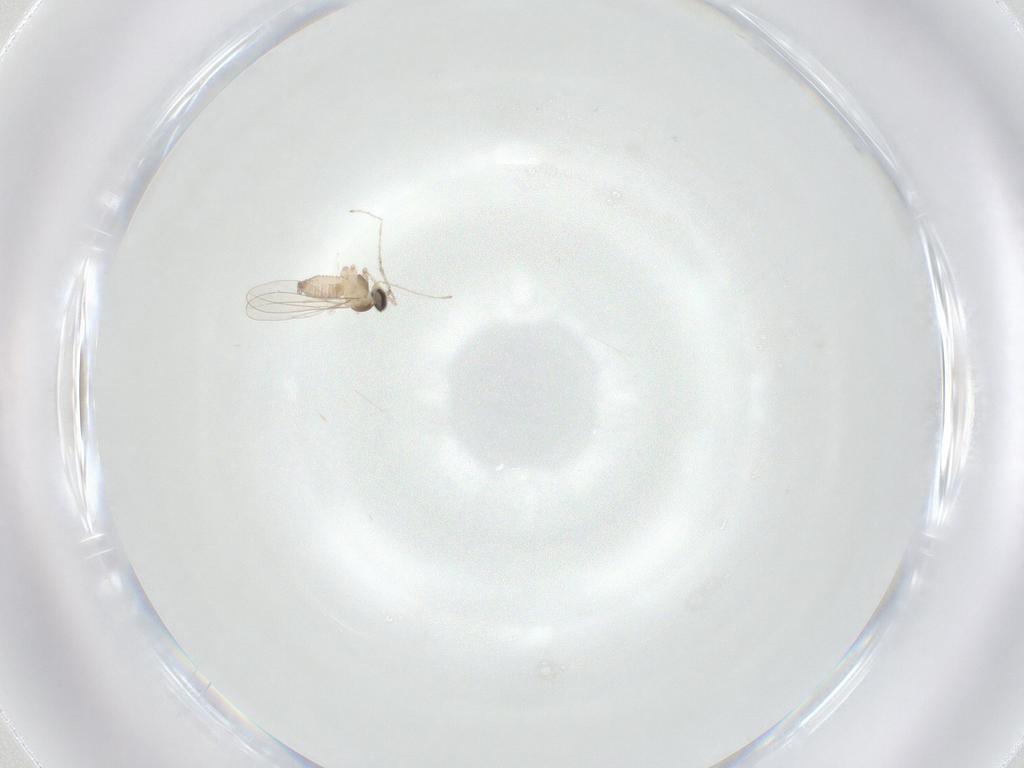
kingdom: Animalia
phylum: Arthropoda
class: Insecta
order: Diptera
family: Cecidomyiidae
